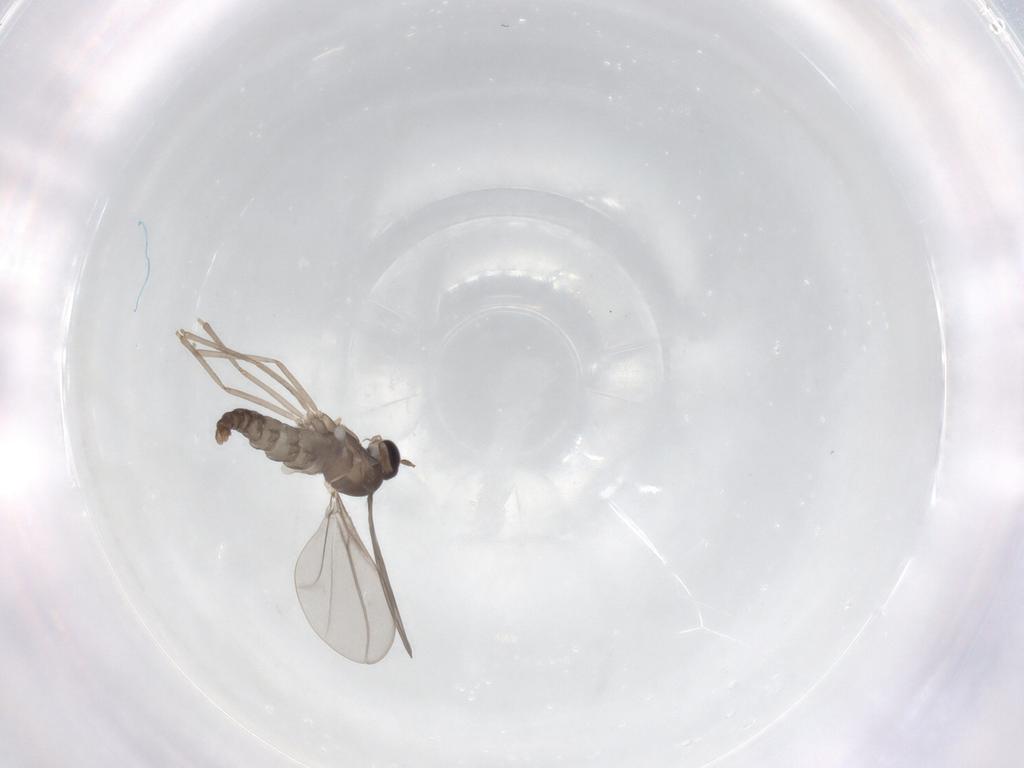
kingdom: Animalia
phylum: Arthropoda
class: Insecta
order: Diptera
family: Cecidomyiidae
